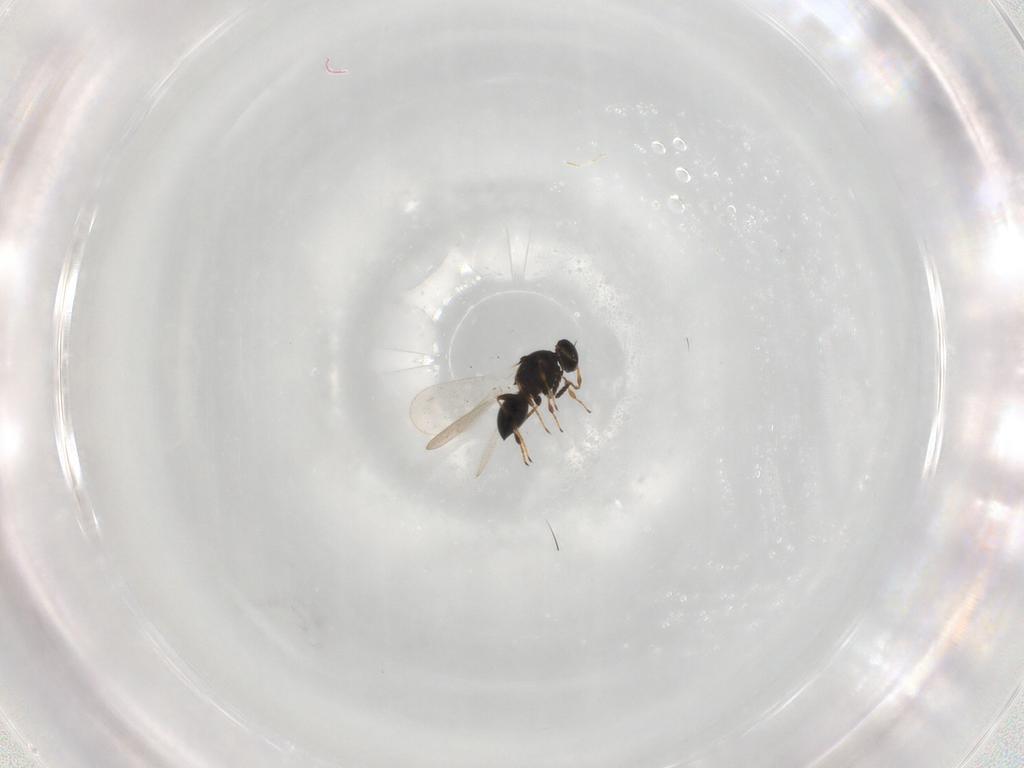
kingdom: Animalia
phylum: Arthropoda
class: Insecta
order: Hymenoptera
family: Platygastridae
